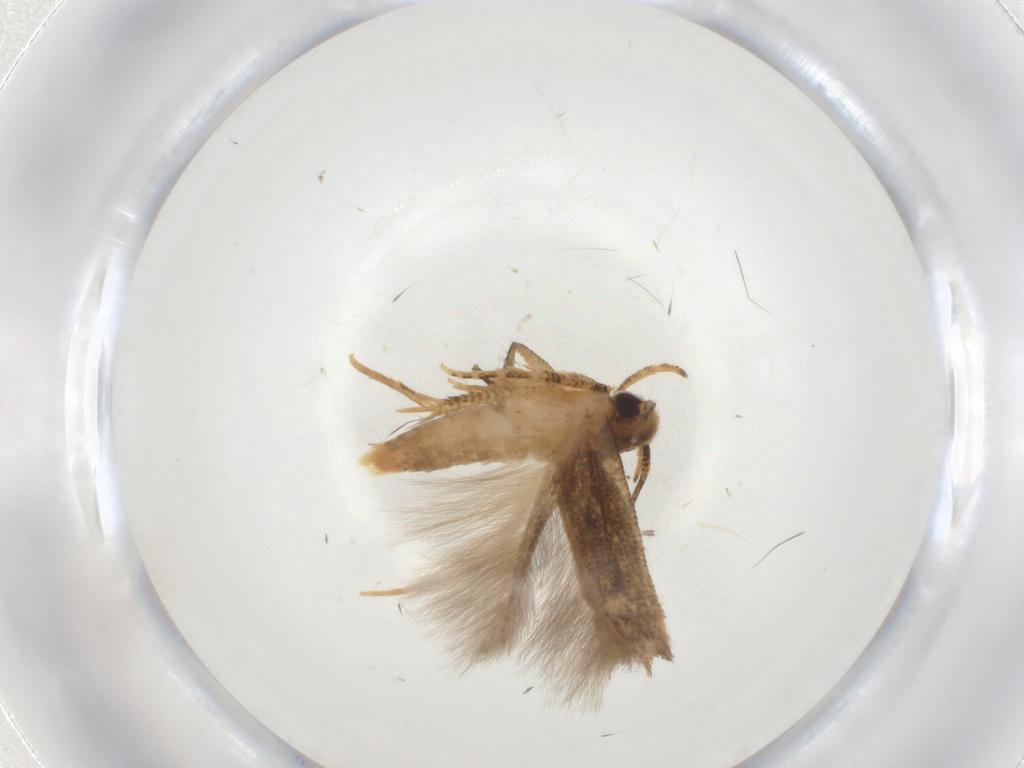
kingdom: Animalia
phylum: Arthropoda
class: Insecta
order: Lepidoptera
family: Cosmopterigidae
